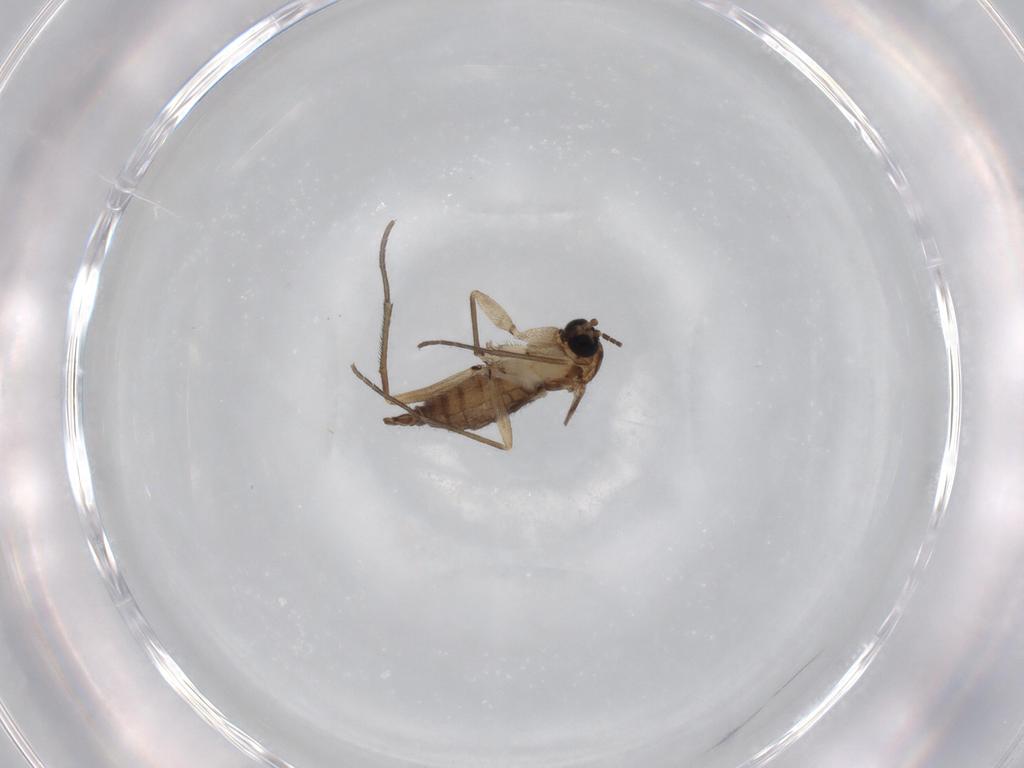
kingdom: Animalia
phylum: Arthropoda
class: Insecta
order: Diptera
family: Sciaridae
